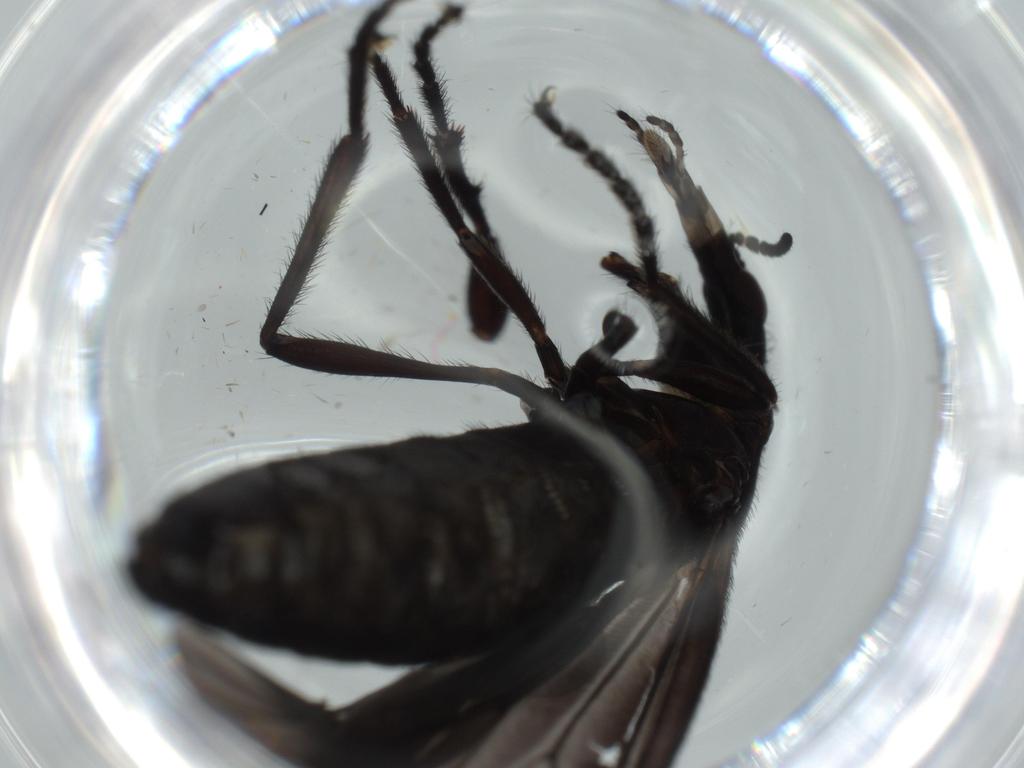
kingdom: Animalia
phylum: Arthropoda
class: Insecta
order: Diptera
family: Bibionidae
